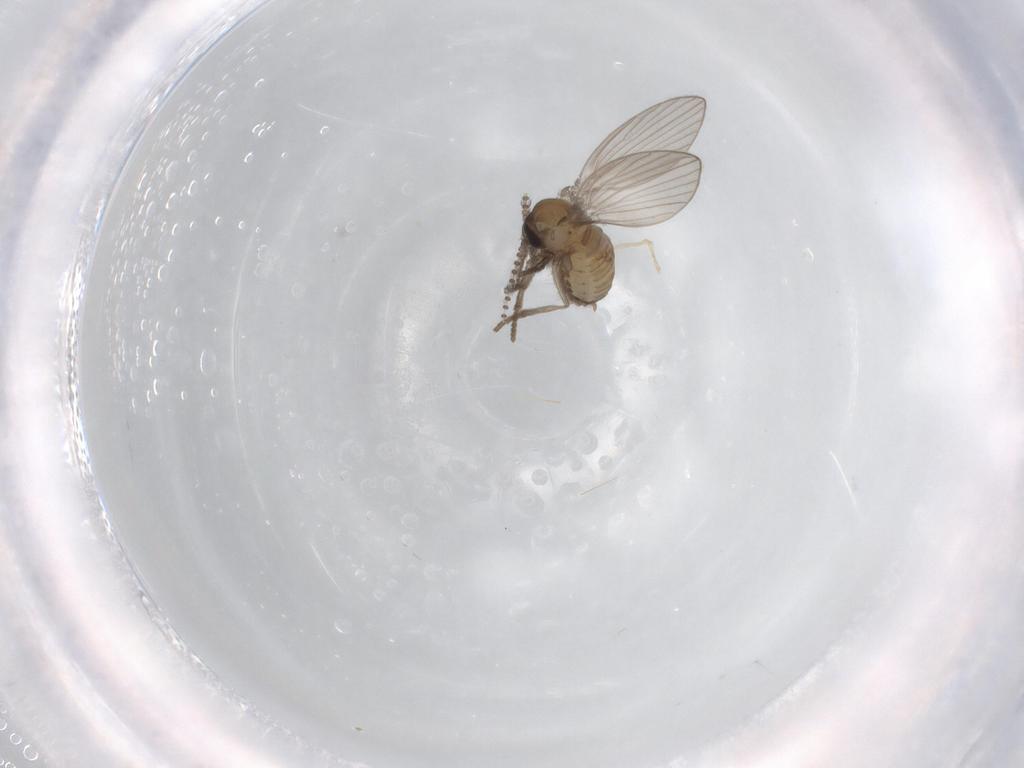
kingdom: Animalia
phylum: Arthropoda
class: Insecta
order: Diptera
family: Psychodidae
